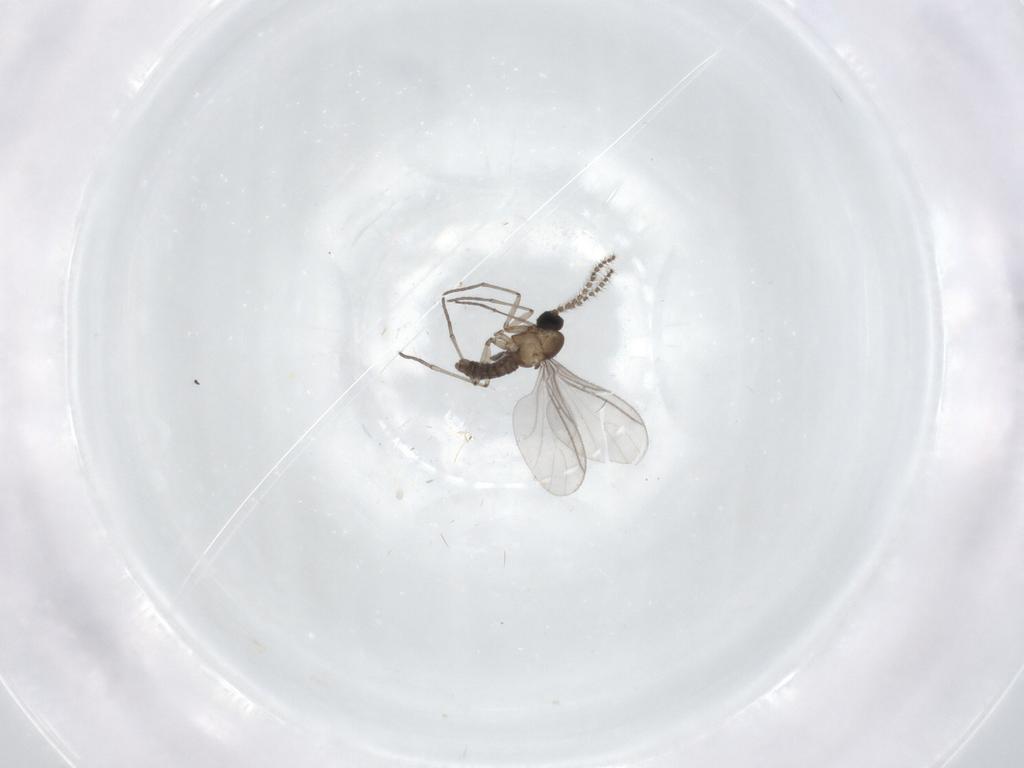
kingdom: Animalia
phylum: Arthropoda
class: Insecta
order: Diptera
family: Sciaridae
